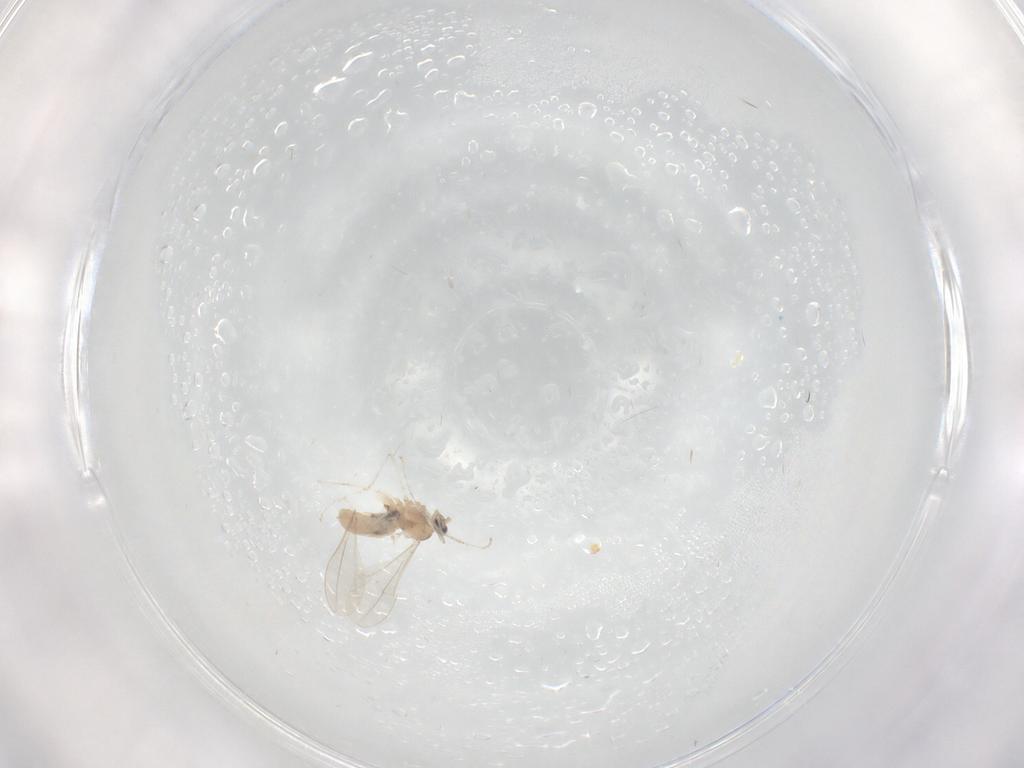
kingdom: Animalia
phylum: Arthropoda
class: Insecta
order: Diptera
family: Cecidomyiidae
